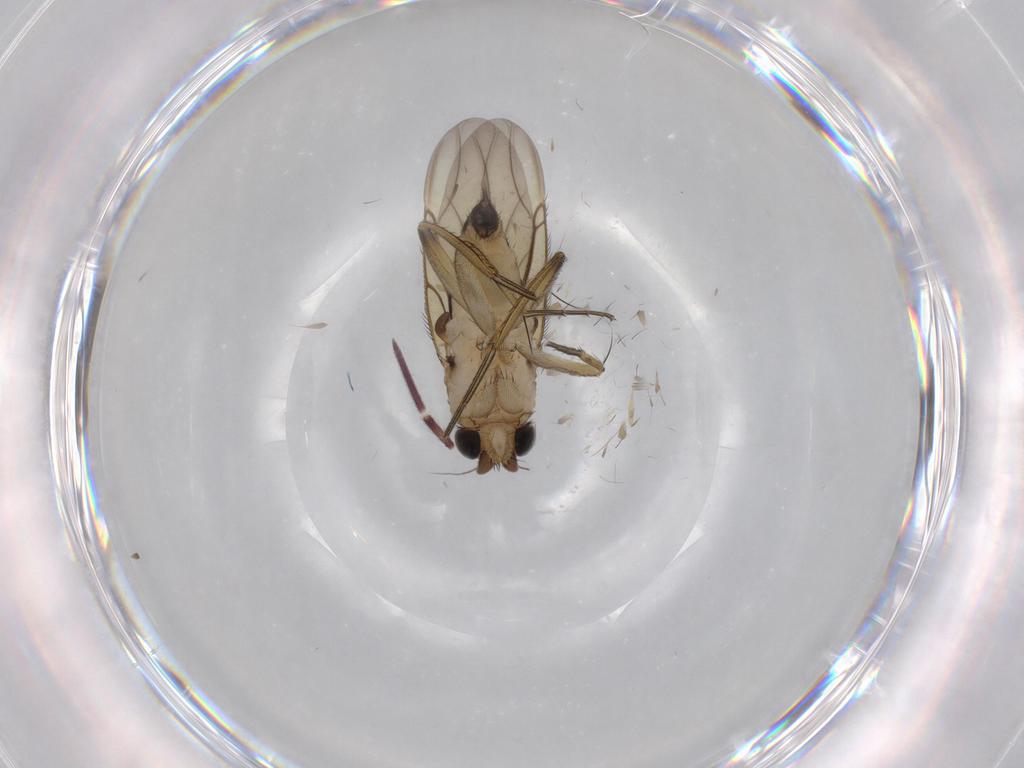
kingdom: Animalia
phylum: Arthropoda
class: Insecta
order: Diptera
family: Phoridae
